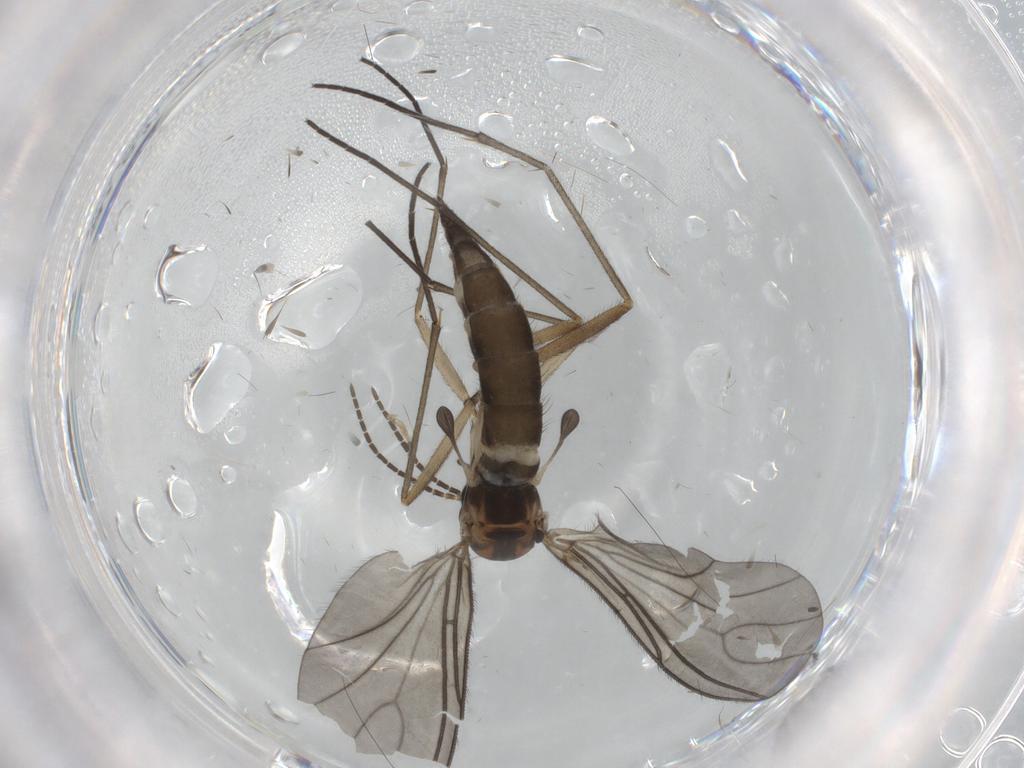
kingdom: Animalia
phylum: Arthropoda
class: Insecta
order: Diptera
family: Sciaridae
